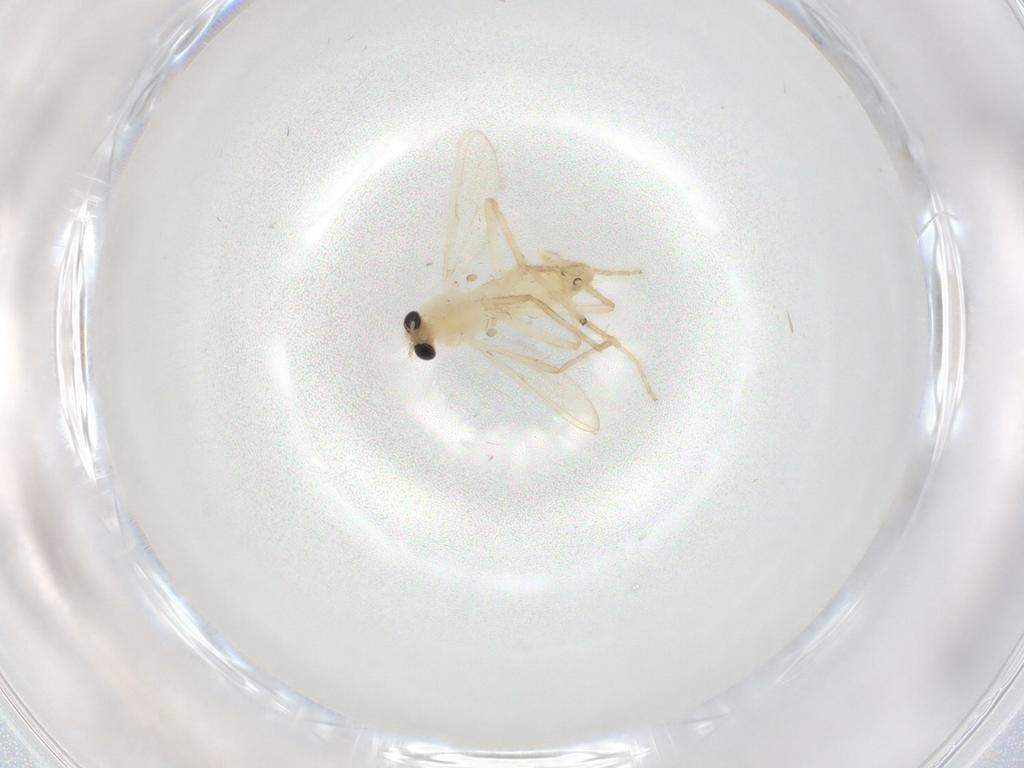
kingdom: Animalia
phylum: Arthropoda
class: Insecta
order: Diptera
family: Chironomidae
